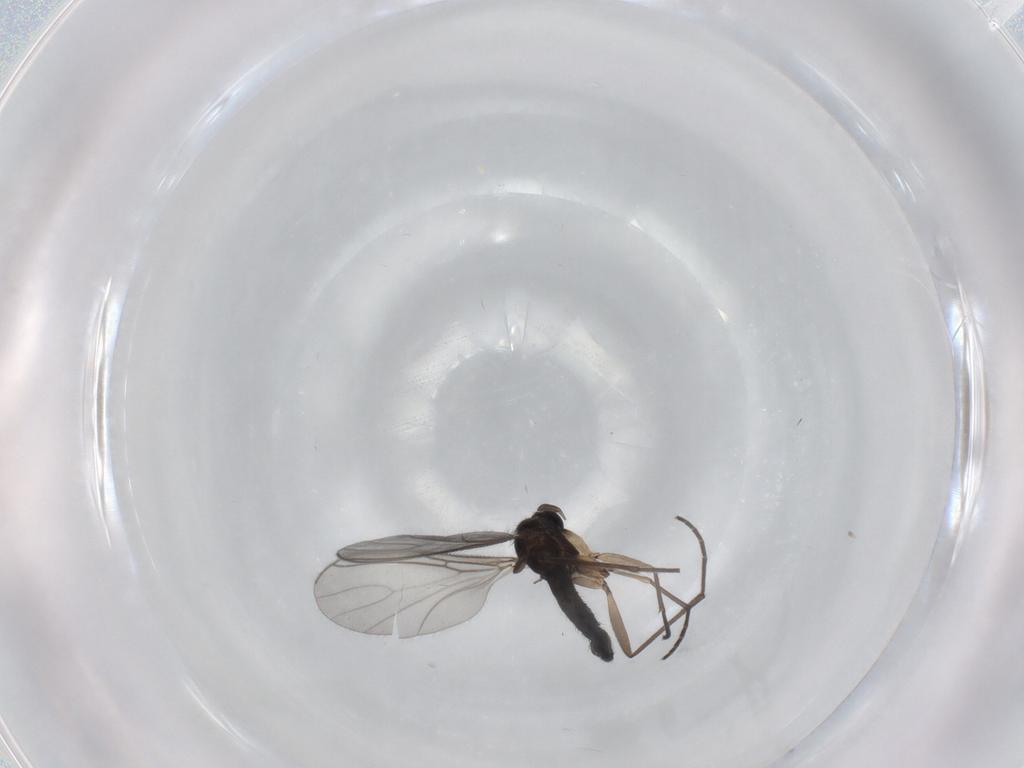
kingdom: Animalia
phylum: Arthropoda
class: Insecta
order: Diptera
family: Sciaridae
